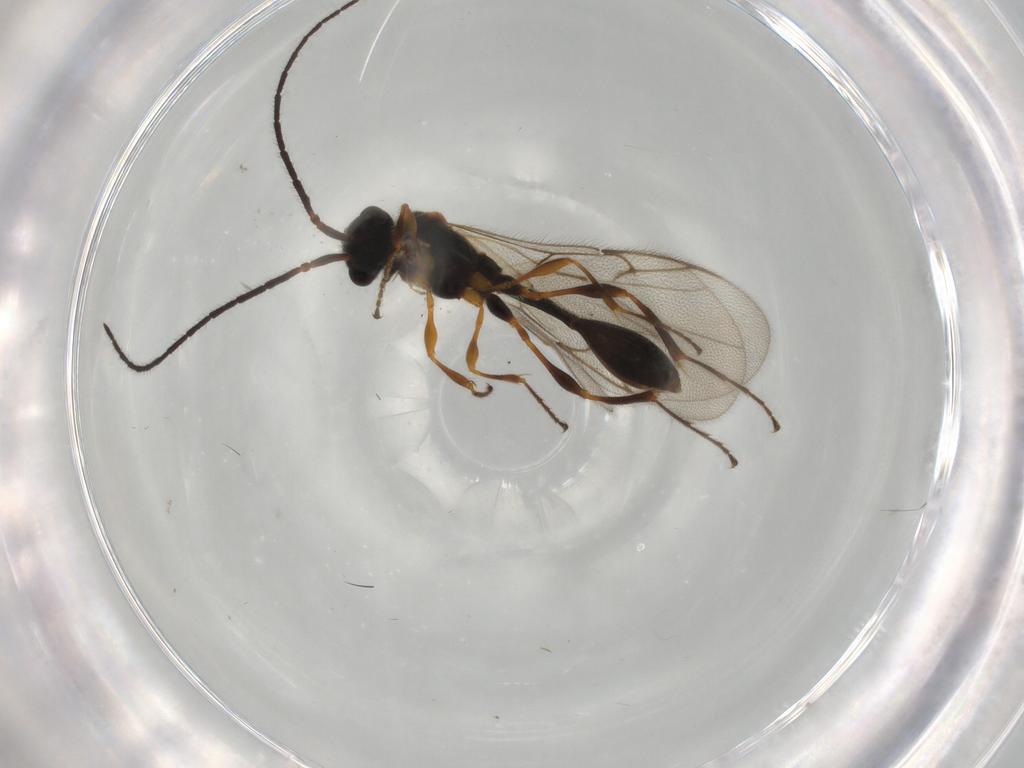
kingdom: Animalia
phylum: Arthropoda
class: Insecta
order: Hymenoptera
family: Diapriidae
